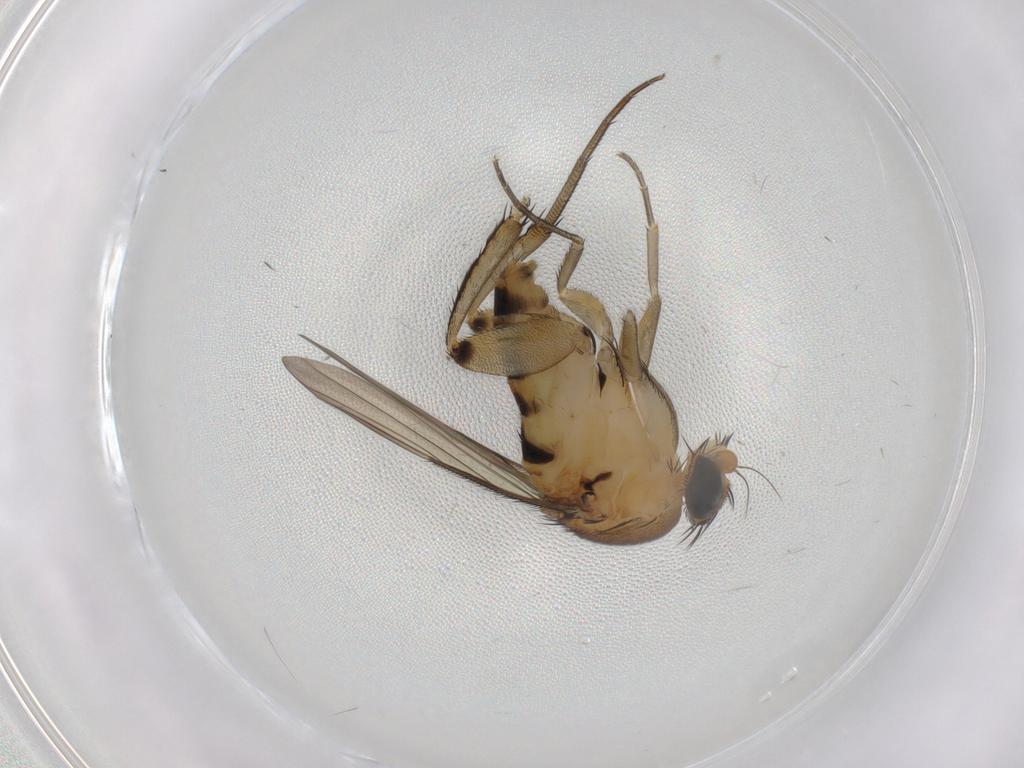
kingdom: Animalia
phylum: Arthropoda
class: Insecta
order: Diptera
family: Phoridae
